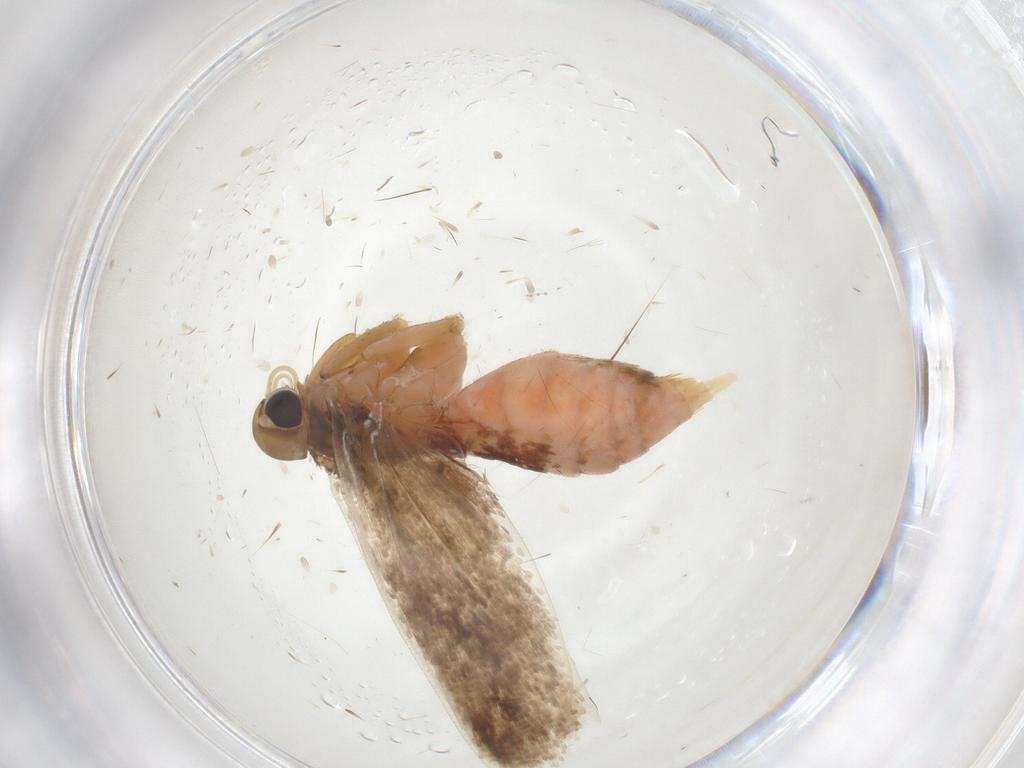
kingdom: Animalia
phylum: Arthropoda
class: Insecta
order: Lepidoptera
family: Gelechiidae
